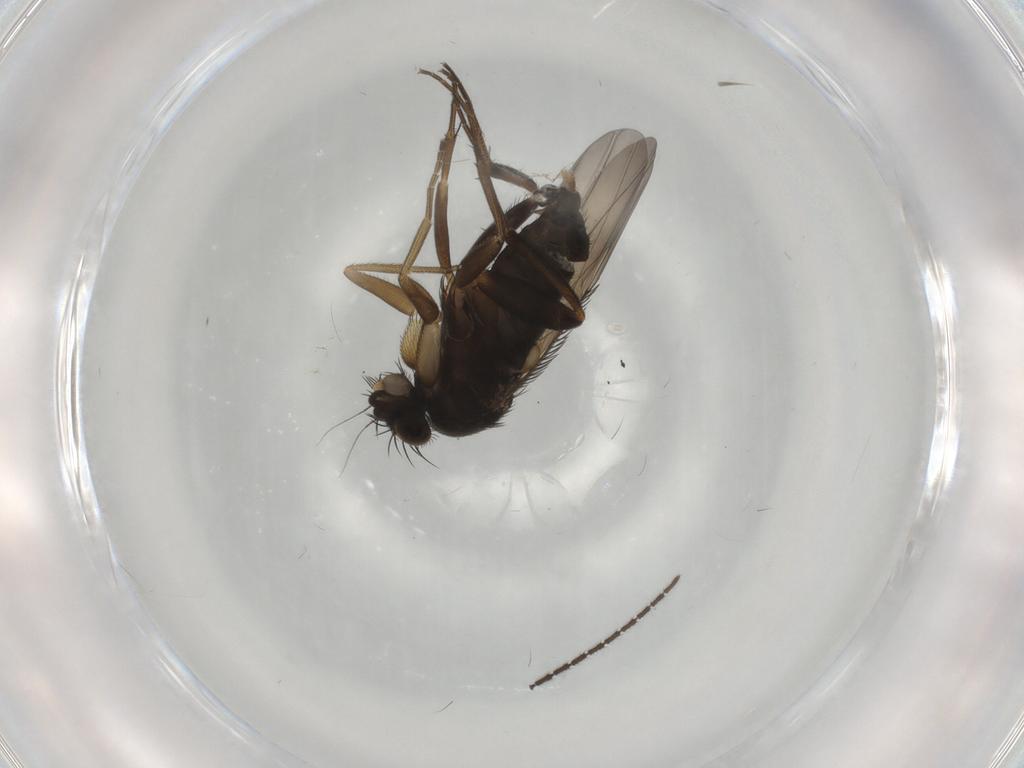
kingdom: Animalia
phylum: Arthropoda
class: Insecta
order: Diptera
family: Phoridae
